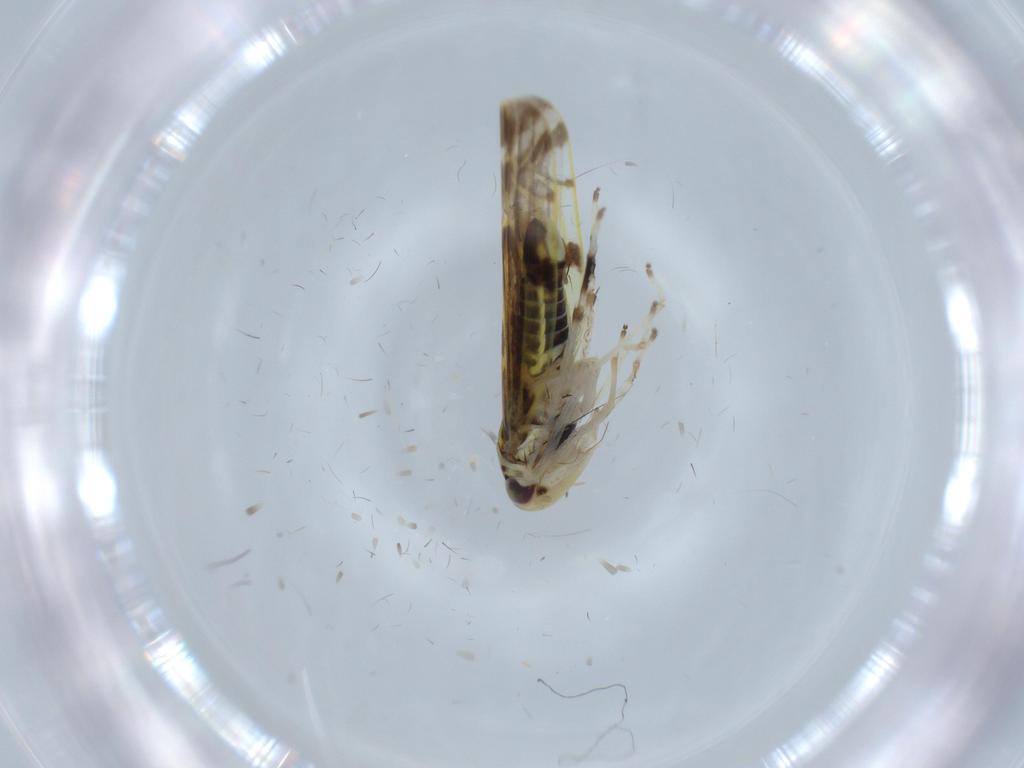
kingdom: Animalia
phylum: Arthropoda
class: Insecta
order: Hemiptera
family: Cicadellidae
